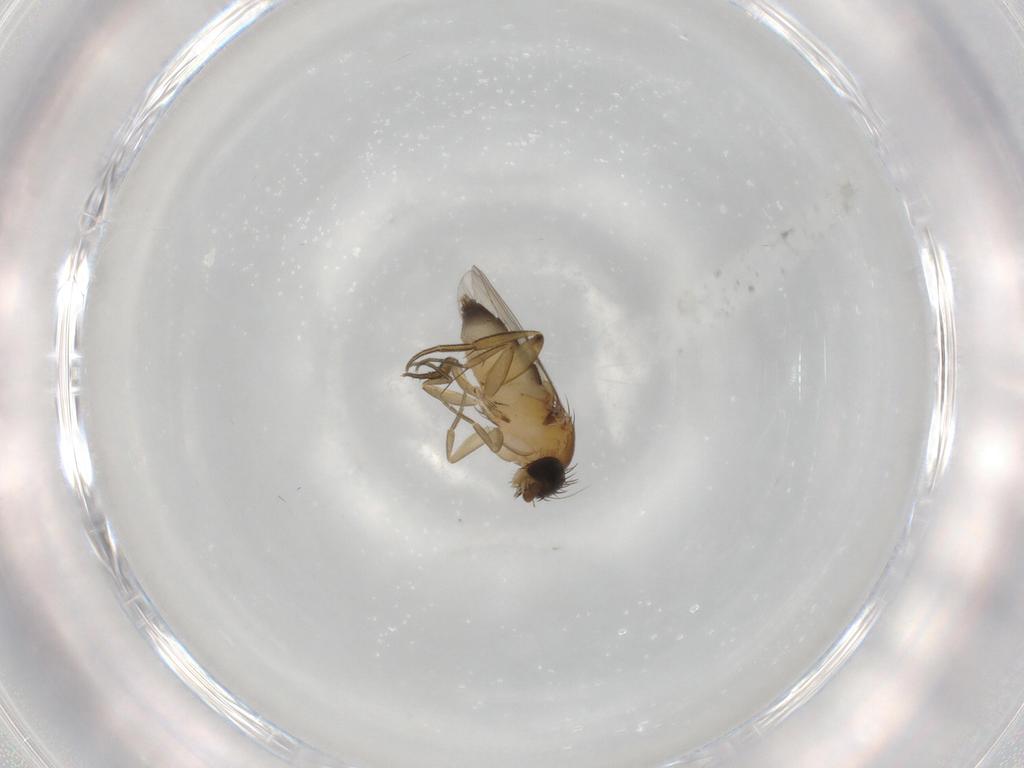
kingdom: Animalia
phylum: Arthropoda
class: Insecta
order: Diptera
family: Phoridae
